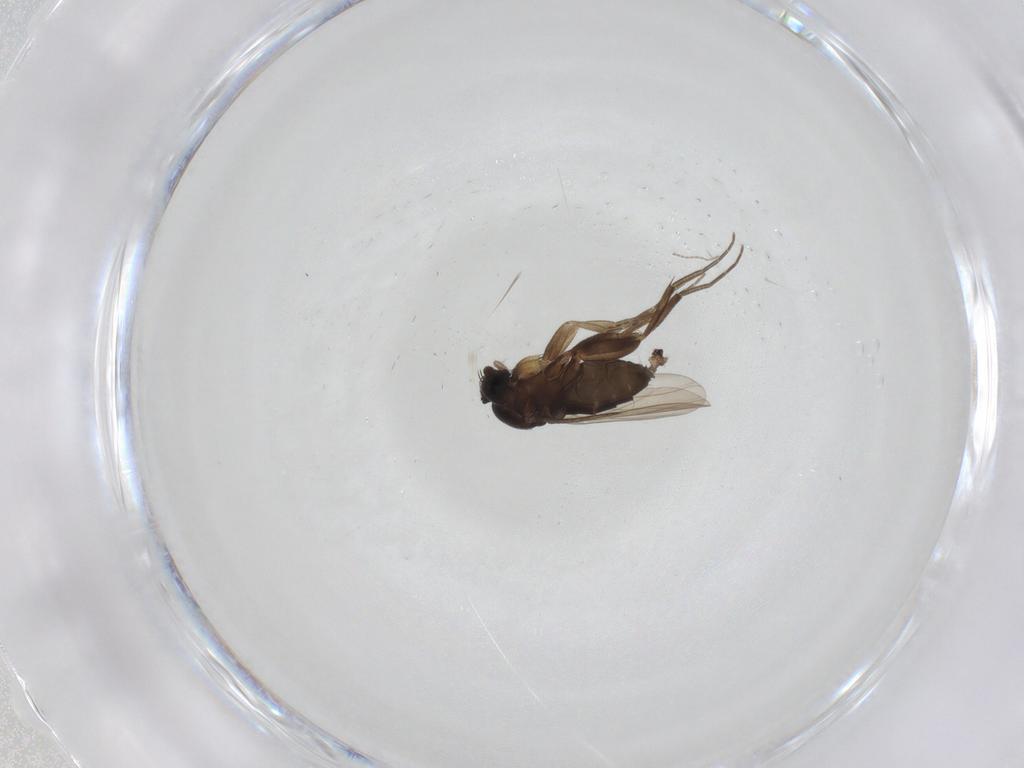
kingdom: Animalia
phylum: Arthropoda
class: Insecta
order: Diptera
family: Phoridae
